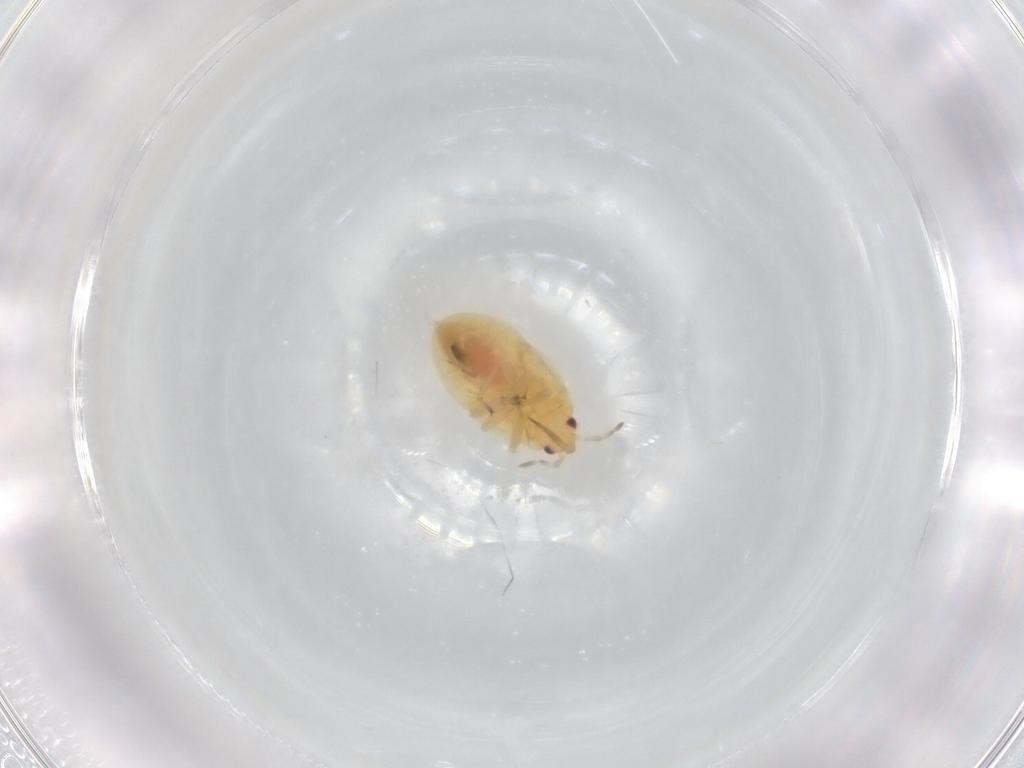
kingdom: Animalia
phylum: Arthropoda
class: Insecta
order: Hemiptera
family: Anthocoridae
